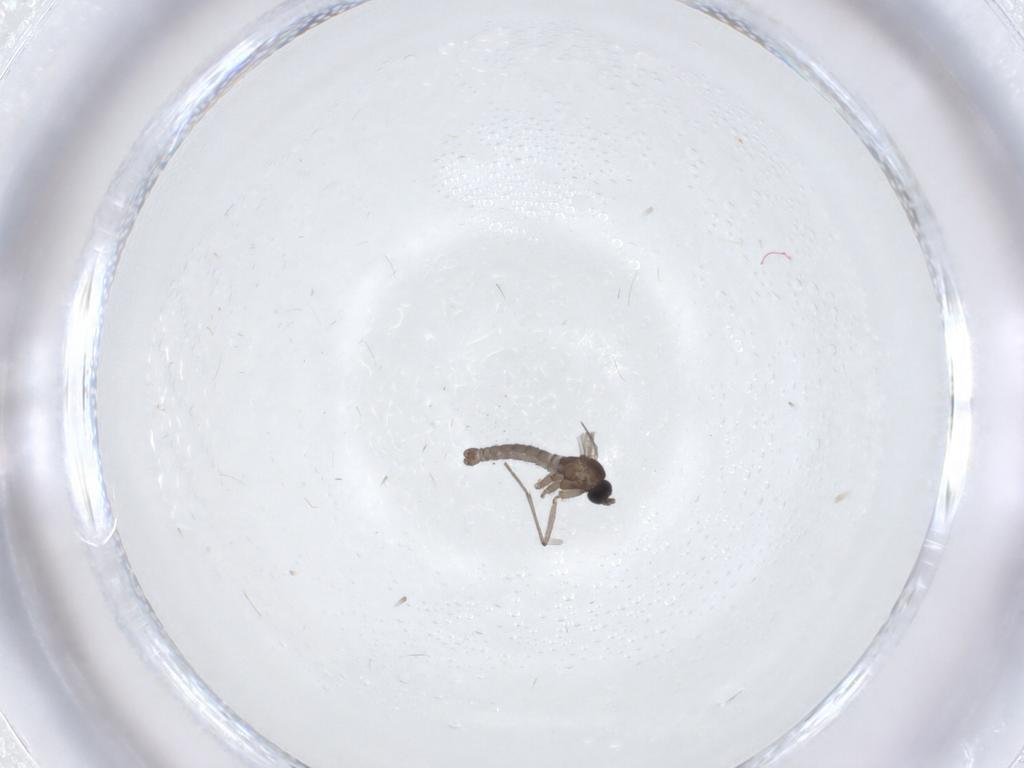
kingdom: Animalia
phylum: Arthropoda
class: Insecta
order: Diptera
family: Sciaridae
